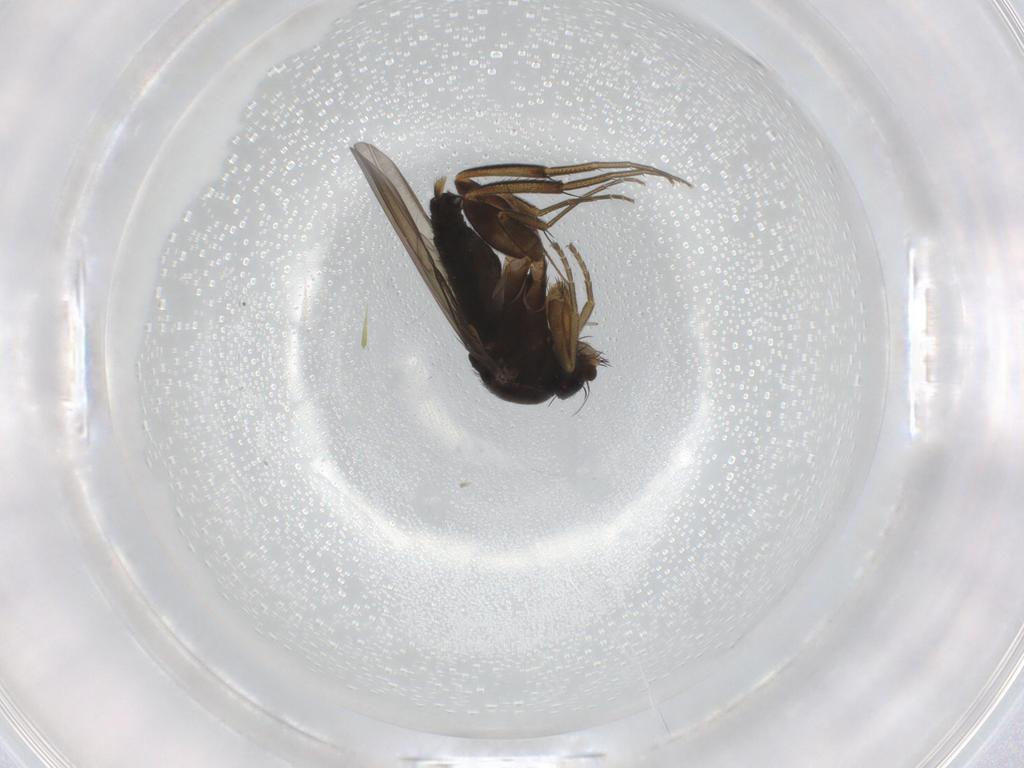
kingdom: Animalia
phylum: Arthropoda
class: Insecta
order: Diptera
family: Phoridae
